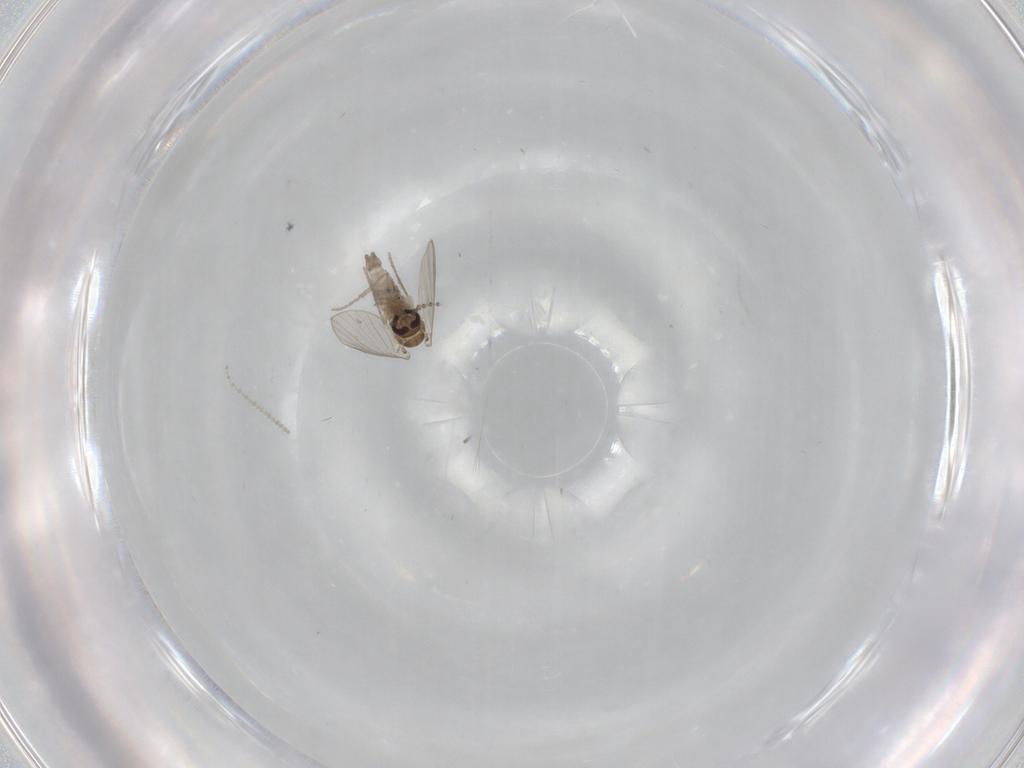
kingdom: Animalia
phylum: Arthropoda
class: Insecta
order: Diptera
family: Psychodidae
